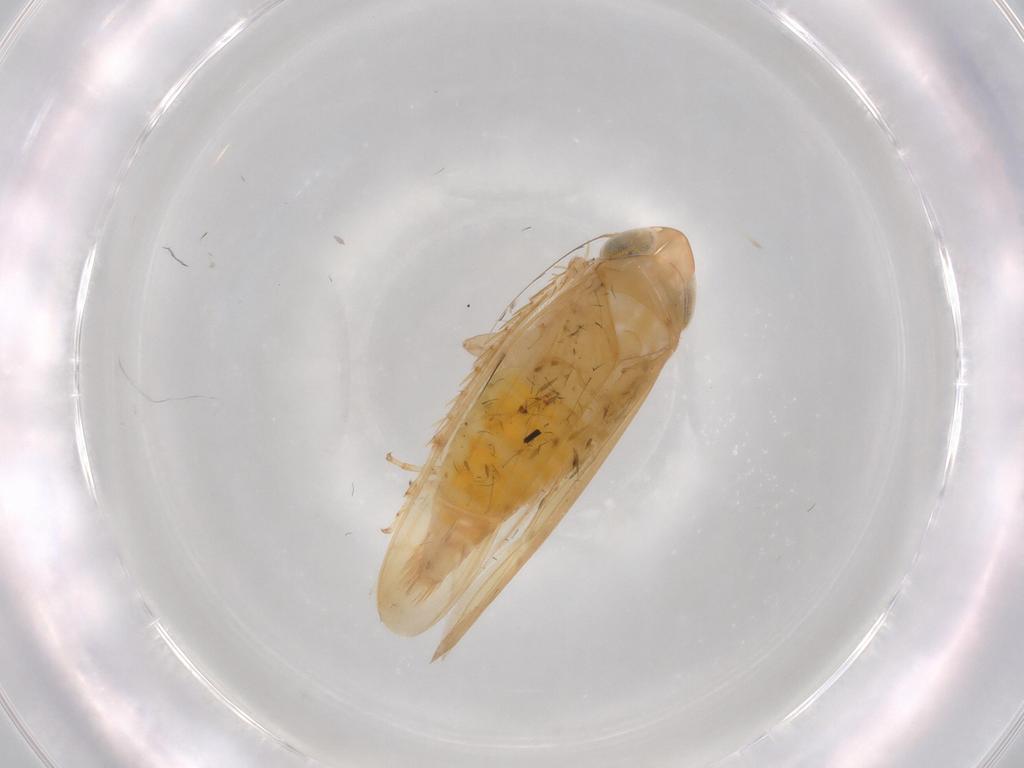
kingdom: Animalia
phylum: Arthropoda
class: Insecta
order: Hemiptera
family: Cicadellidae
